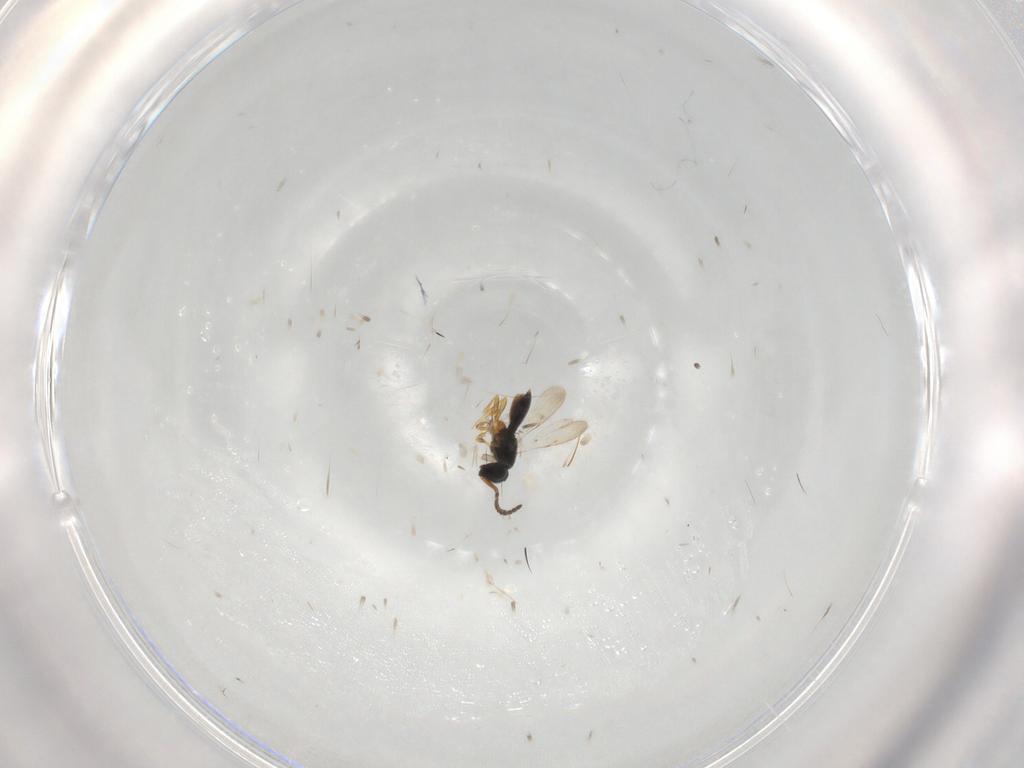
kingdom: Animalia
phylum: Arthropoda
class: Insecta
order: Hymenoptera
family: Scelionidae
